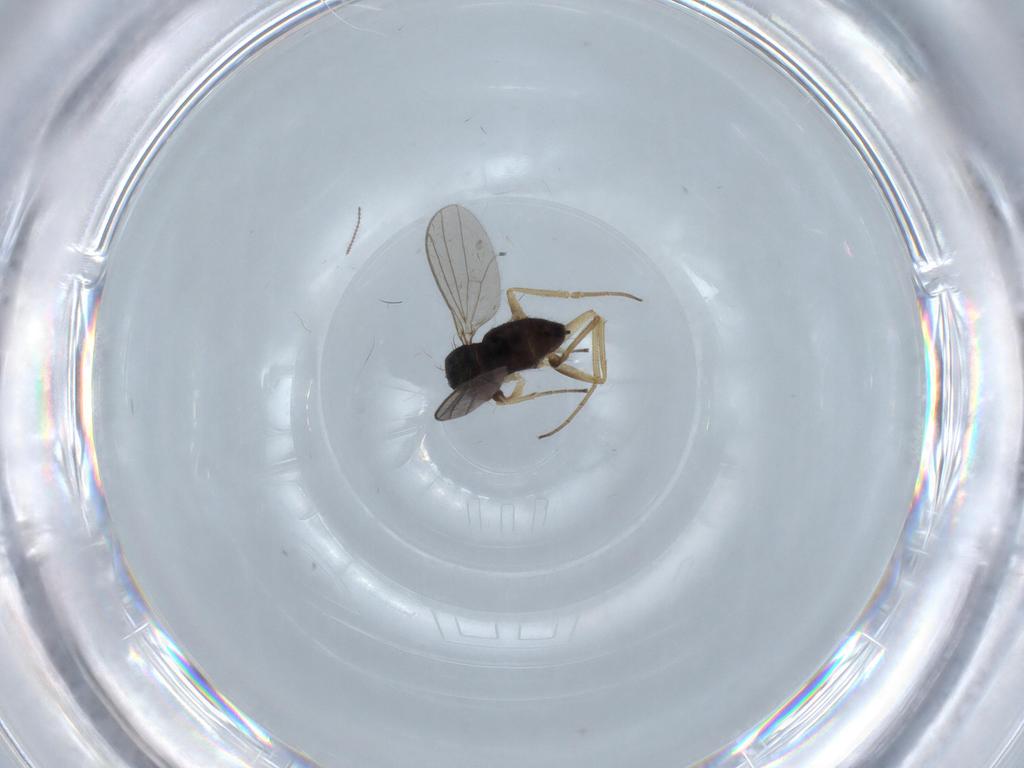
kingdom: Animalia
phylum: Arthropoda
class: Insecta
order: Diptera
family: Dolichopodidae
